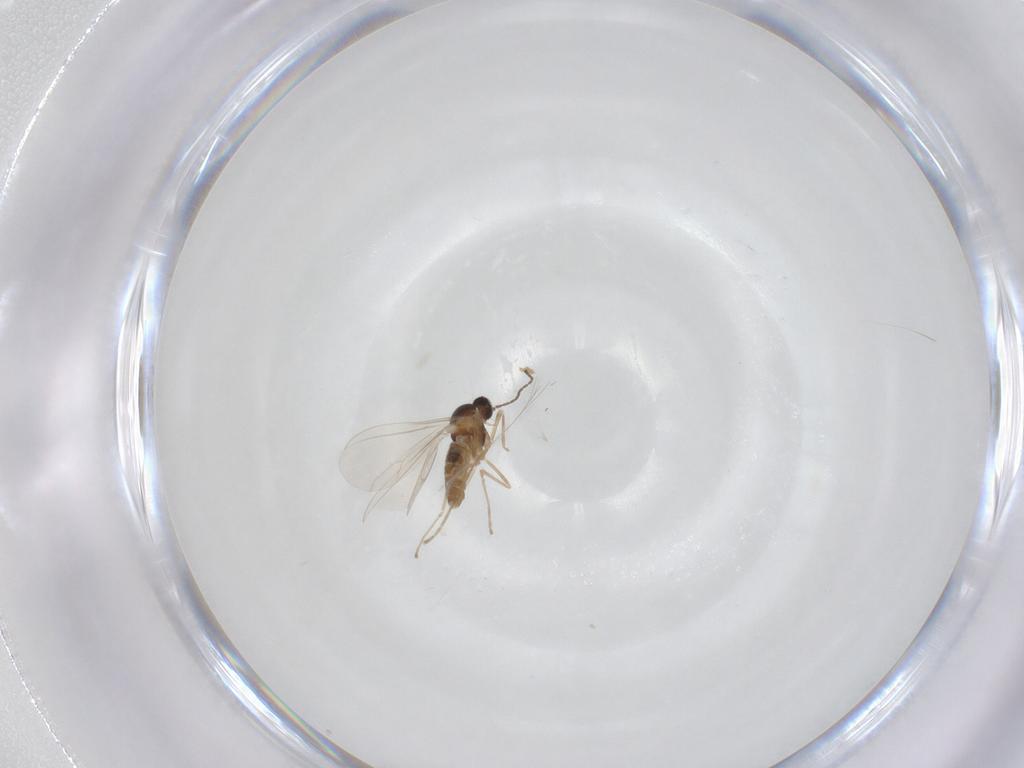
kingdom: Animalia
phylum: Arthropoda
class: Insecta
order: Diptera
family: Cecidomyiidae
